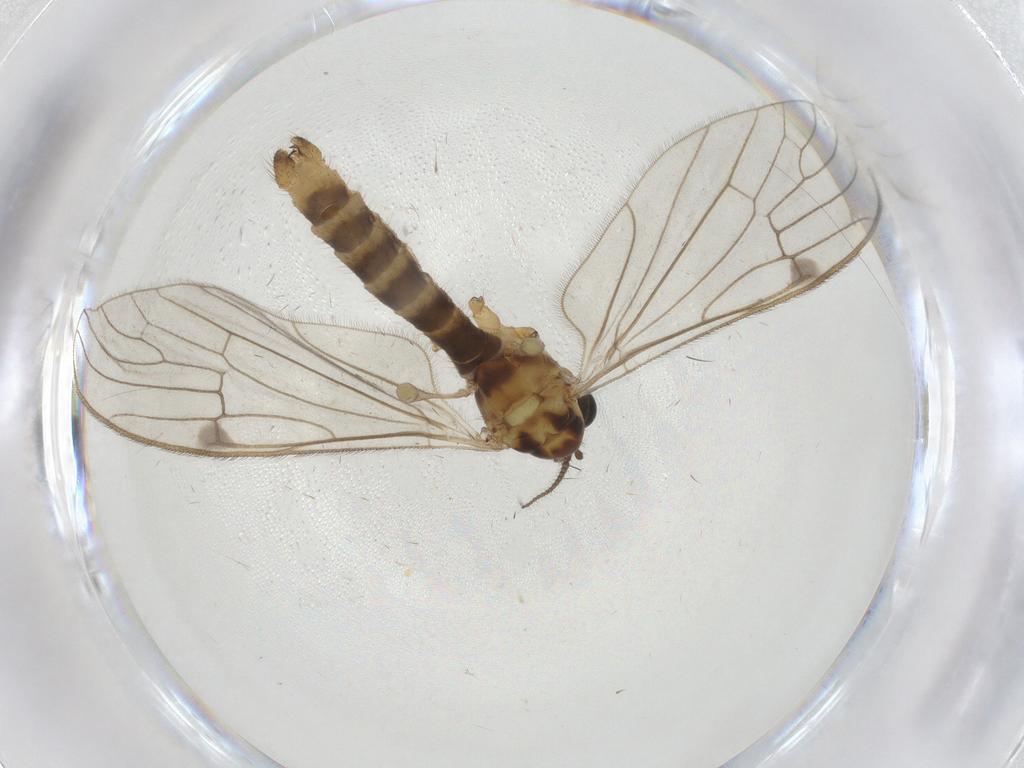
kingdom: Animalia
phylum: Arthropoda
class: Insecta
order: Diptera
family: Limoniidae
